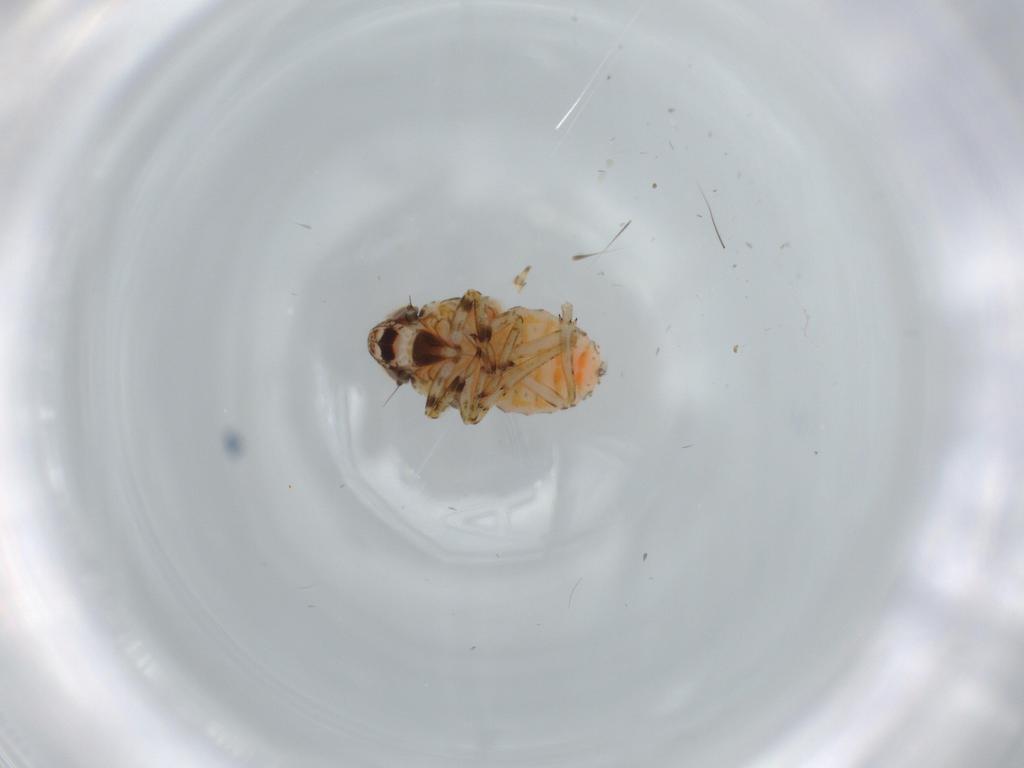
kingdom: Animalia
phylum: Arthropoda
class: Insecta
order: Hemiptera
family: Issidae
